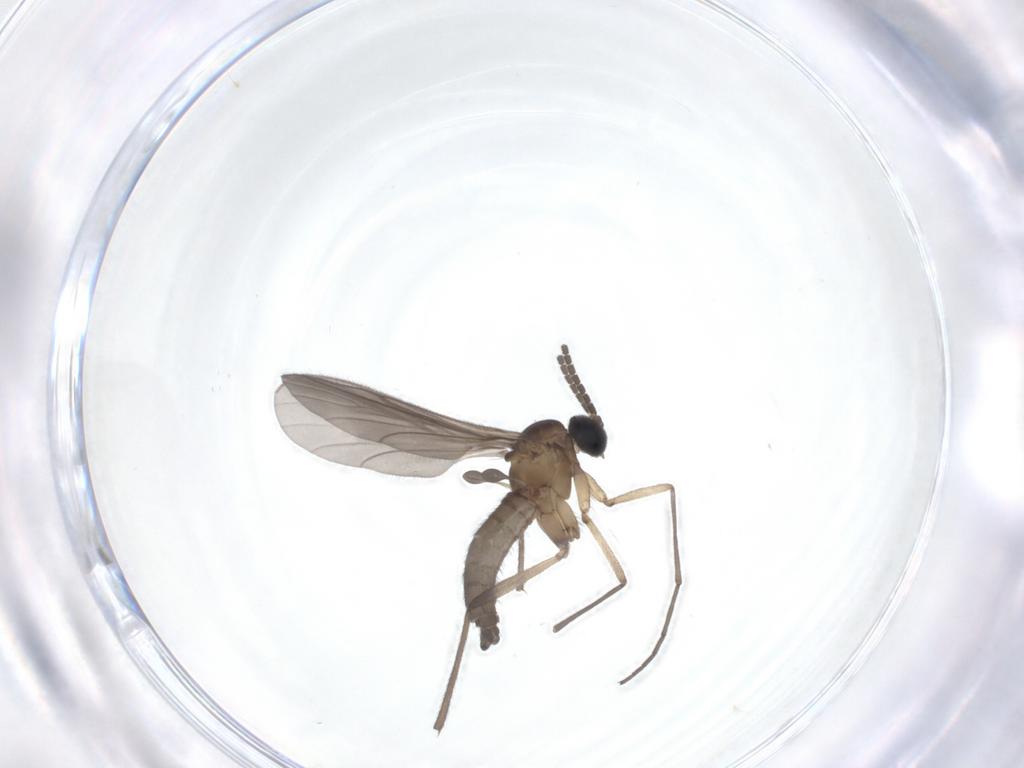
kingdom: Animalia
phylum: Arthropoda
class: Insecta
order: Diptera
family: Sciaridae
